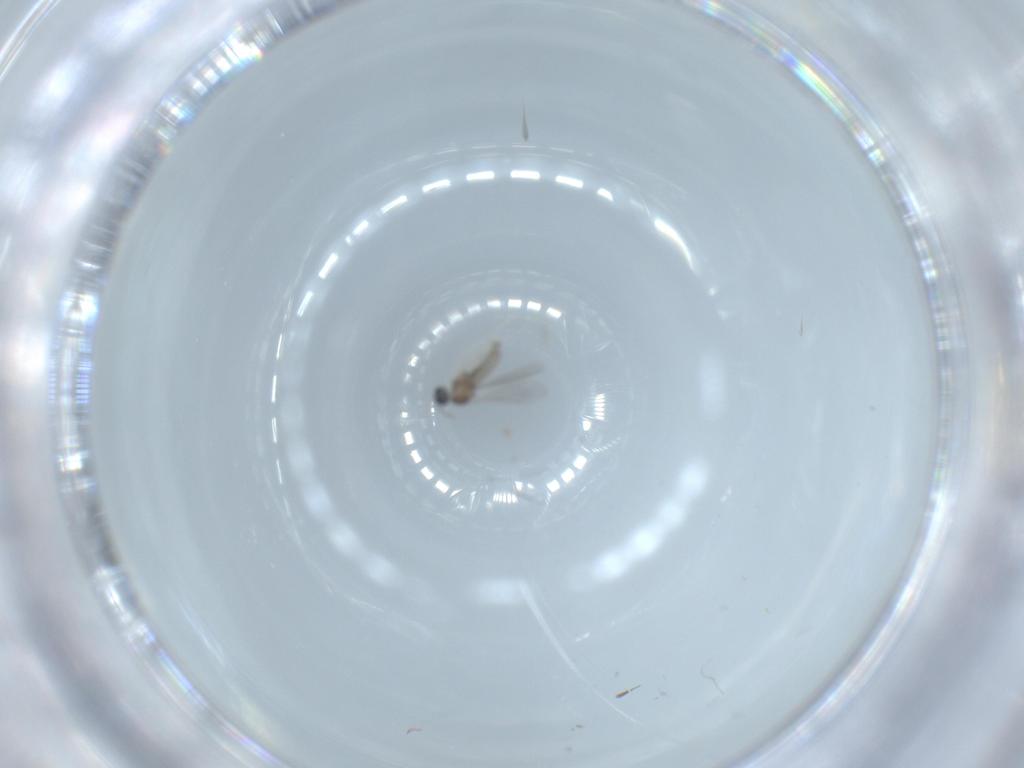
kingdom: Animalia
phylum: Arthropoda
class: Insecta
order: Diptera
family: Cecidomyiidae
